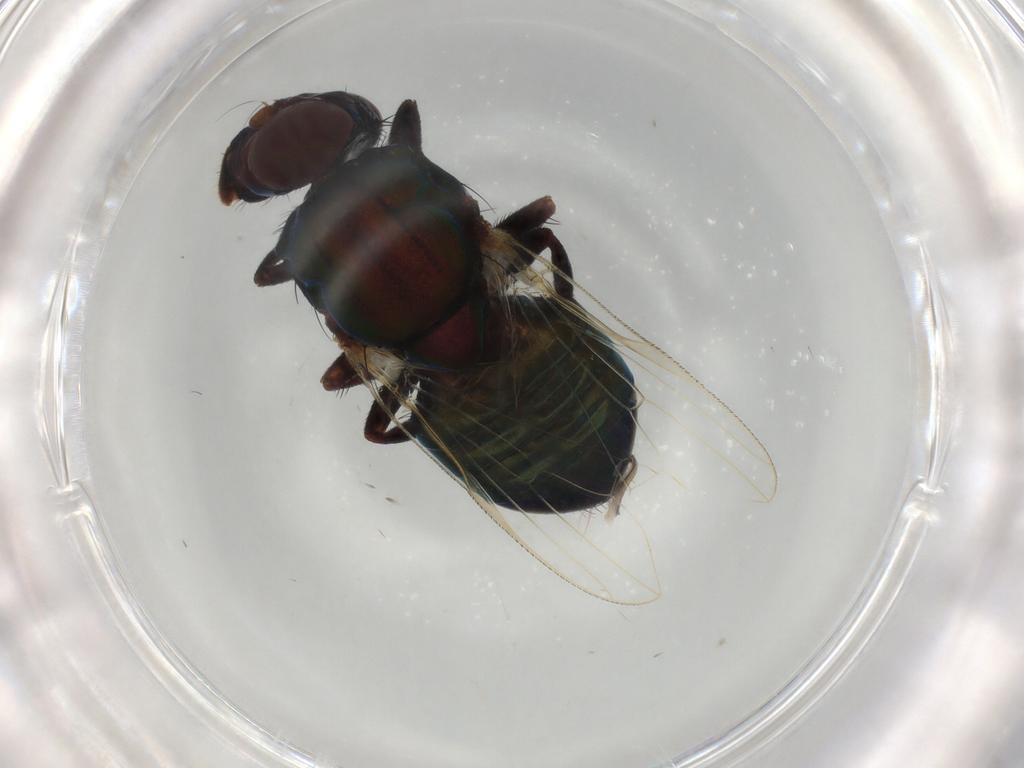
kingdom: Animalia
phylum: Arthropoda
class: Insecta
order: Diptera
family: Ulidiidae
